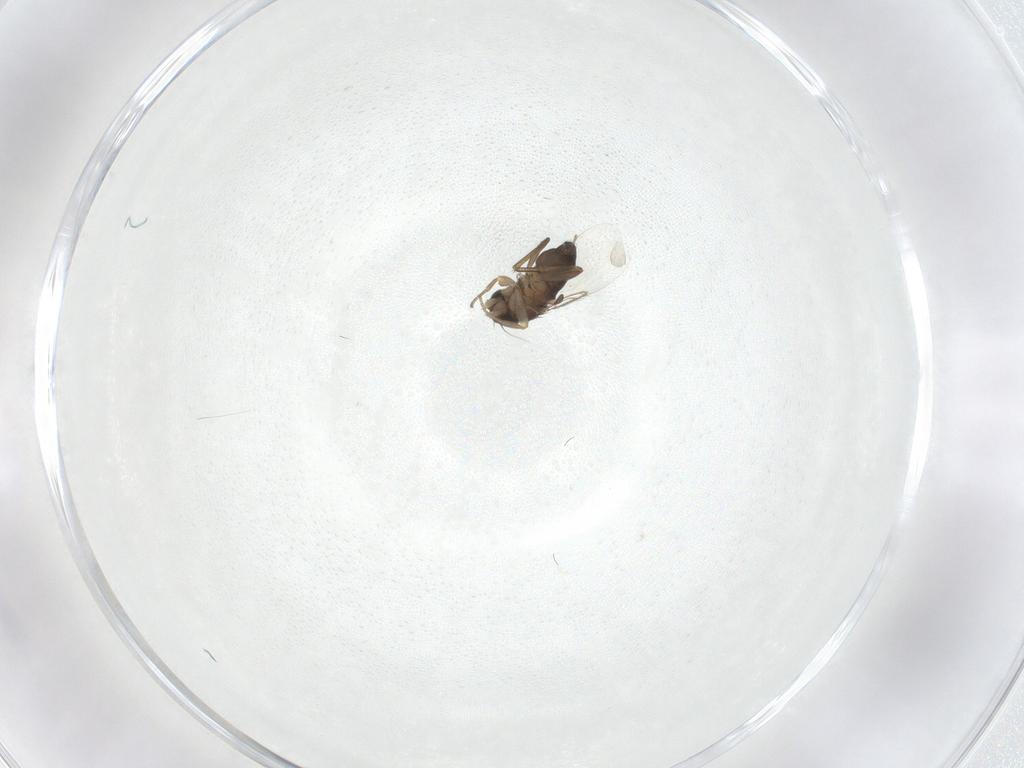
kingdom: Animalia
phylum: Arthropoda
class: Insecta
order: Diptera
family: Phoridae
